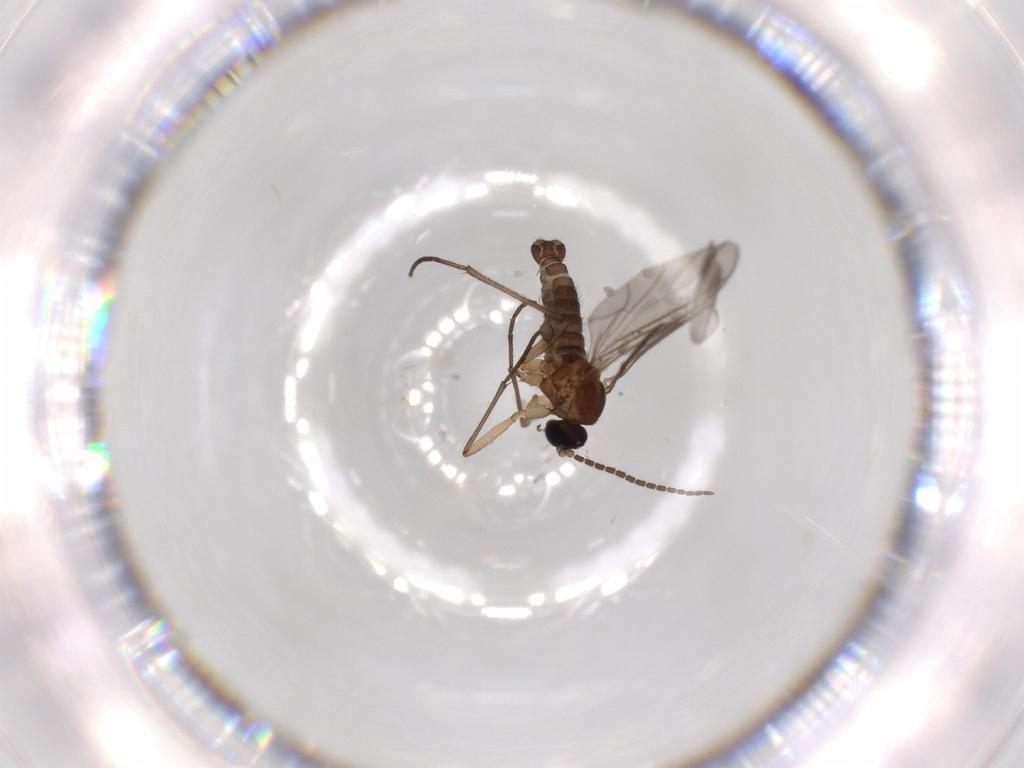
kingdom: Animalia
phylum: Arthropoda
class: Insecta
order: Diptera
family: Sciaridae
